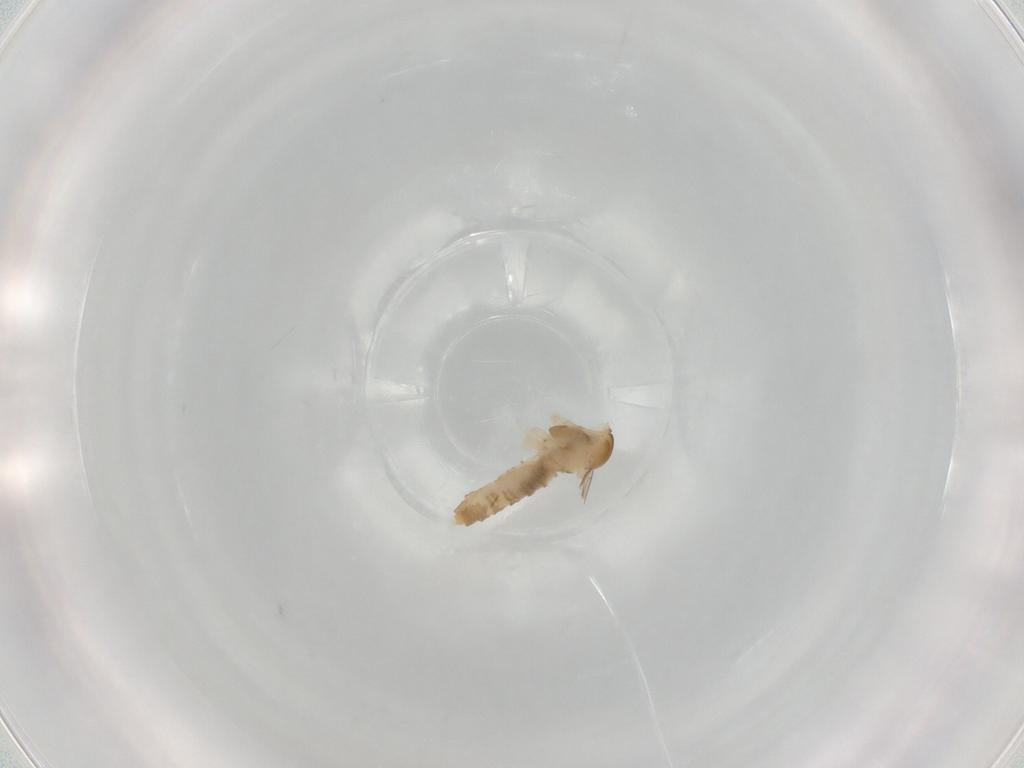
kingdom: Animalia
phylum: Arthropoda
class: Insecta
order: Diptera
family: Cecidomyiidae
